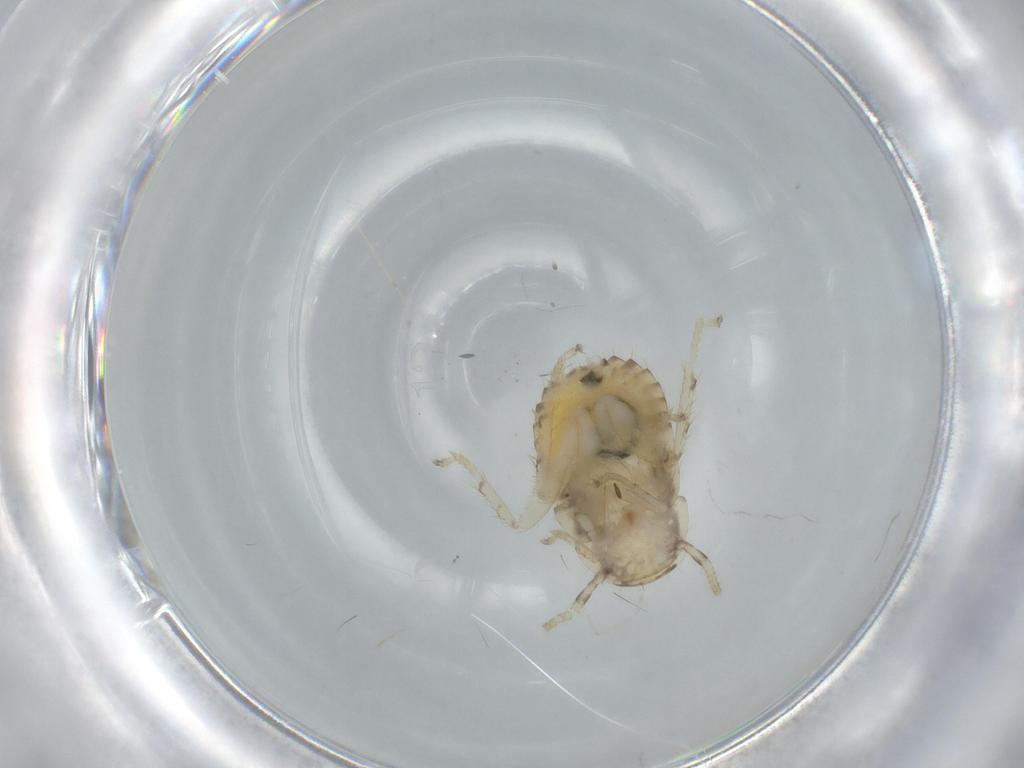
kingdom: Animalia
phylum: Arthropoda
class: Insecta
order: Blattodea
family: Ectobiidae
